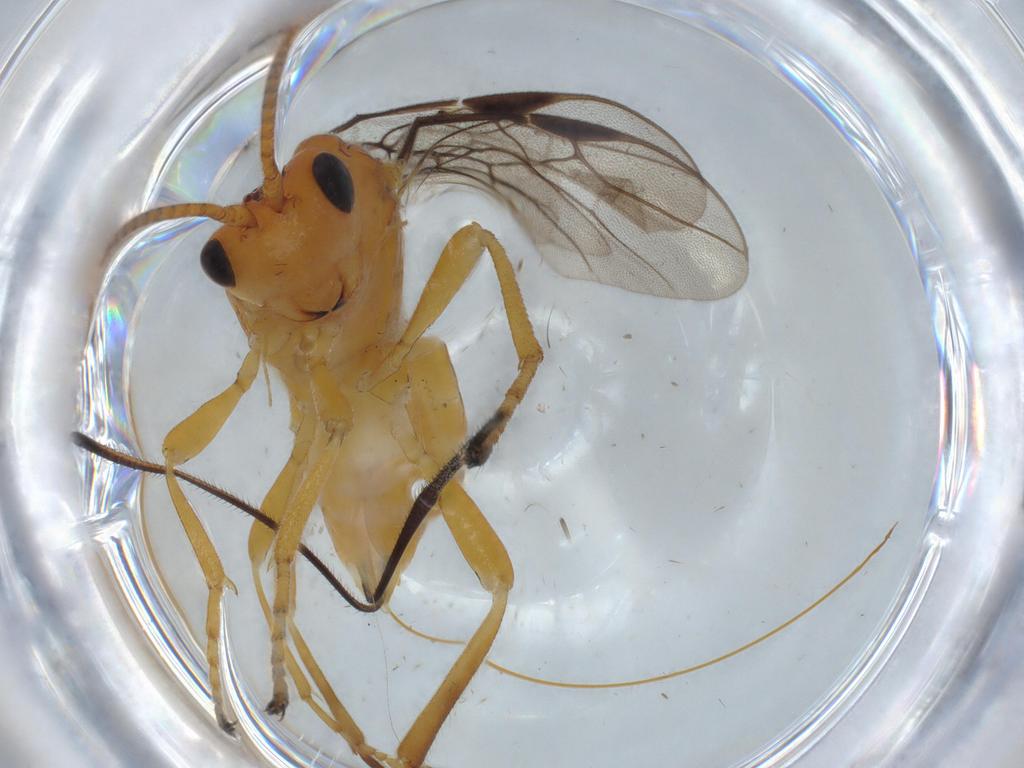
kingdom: Animalia
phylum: Arthropoda
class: Insecta
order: Hymenoptera
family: Braconidae
